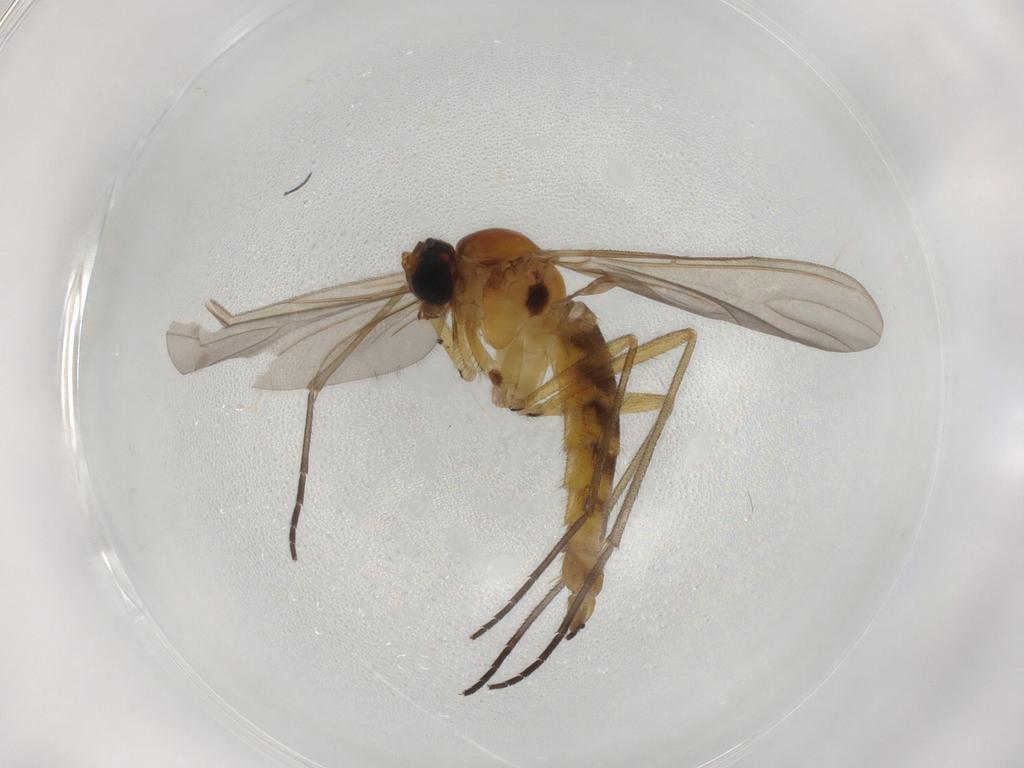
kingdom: Animalia
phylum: Arthropoda
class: Insecta
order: Diptera
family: Sciaridae
